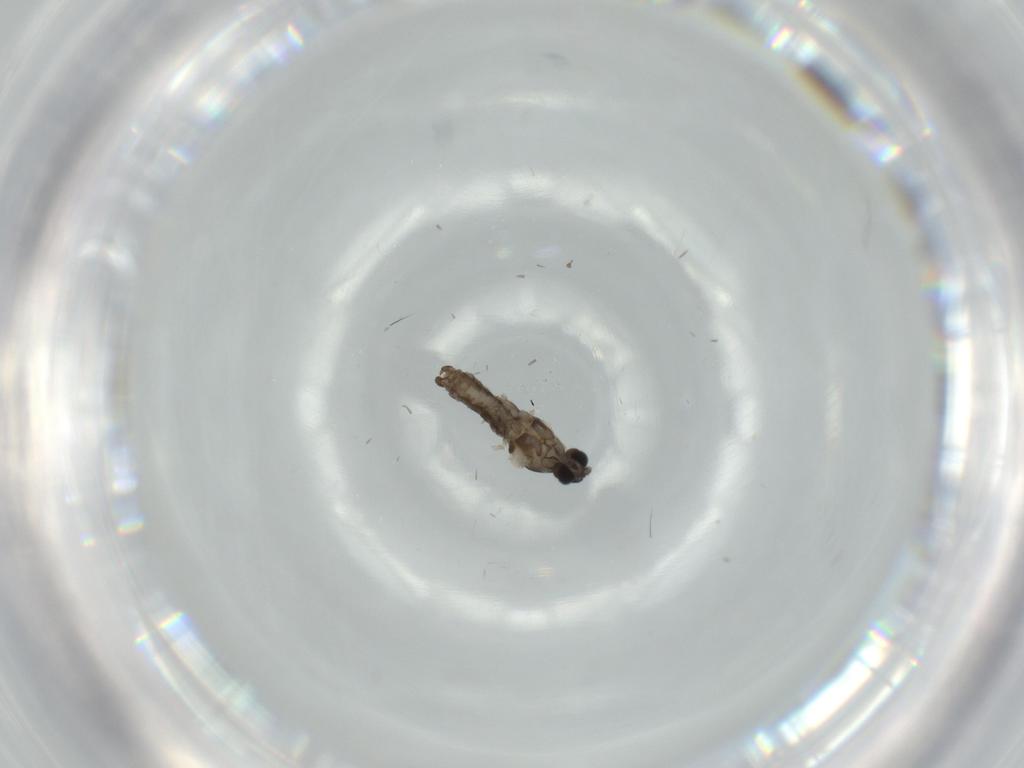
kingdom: Animalia
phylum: Arthropoda
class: Insecta
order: Diptera
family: Cecidomyiidae
